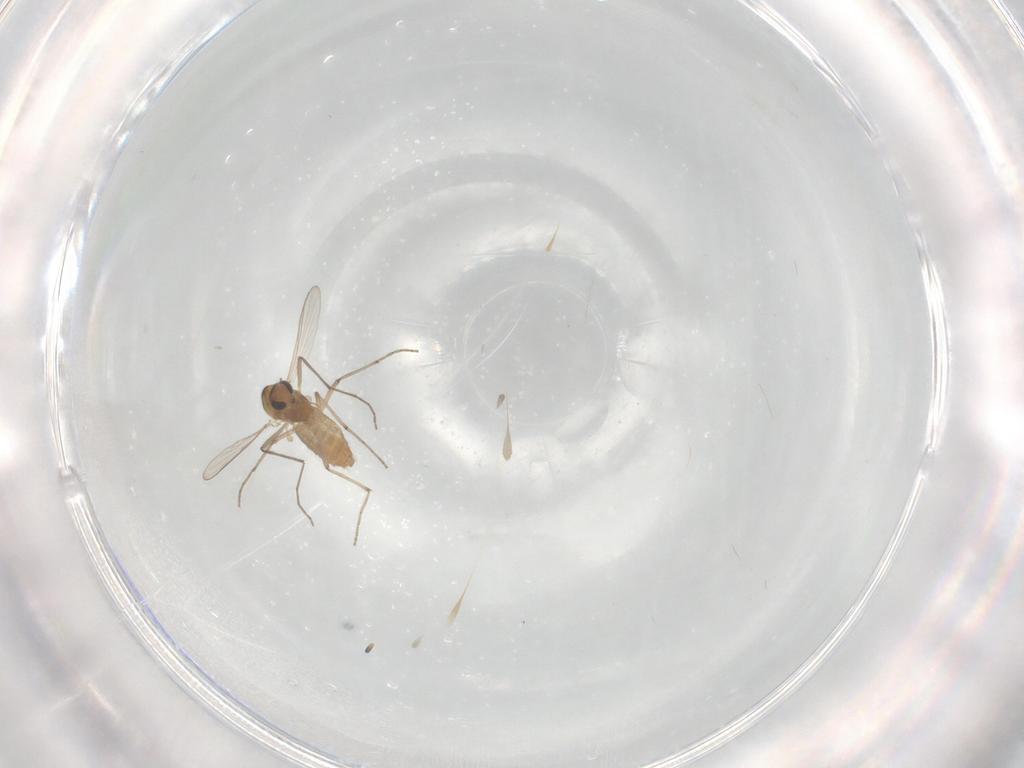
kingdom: Animalia
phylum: Arthropoda
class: Insecta
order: Diptera
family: Chironomidae
